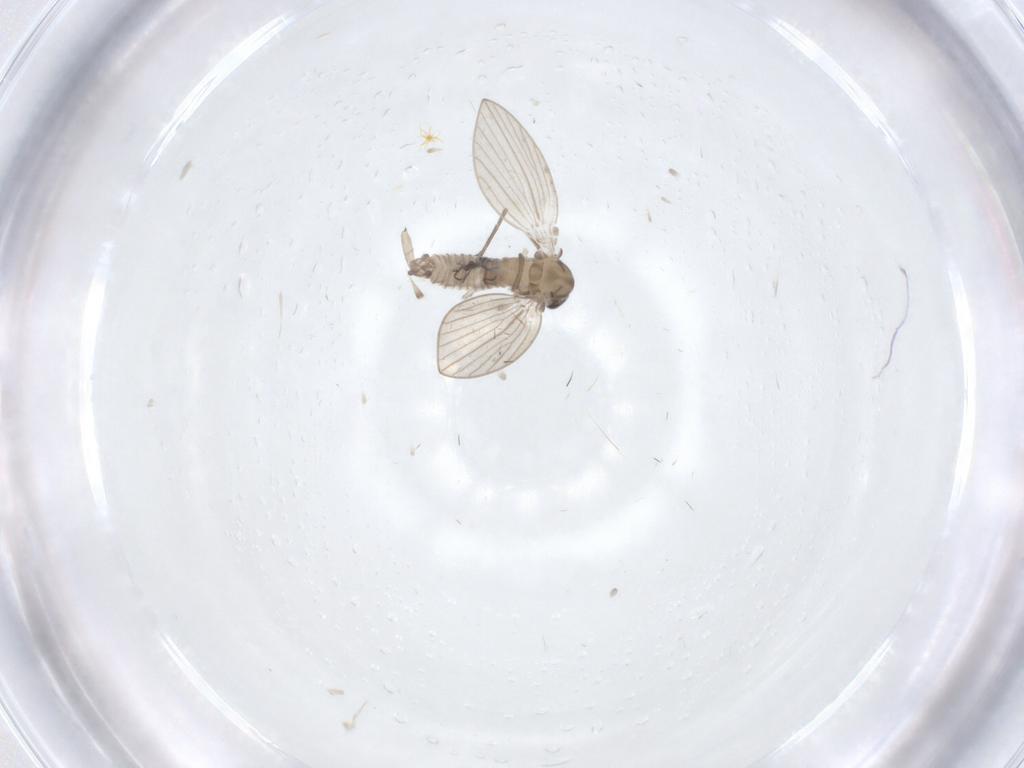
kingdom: Animalia
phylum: Arthropoda
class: Insecta
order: Diptera
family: Psychodidae
